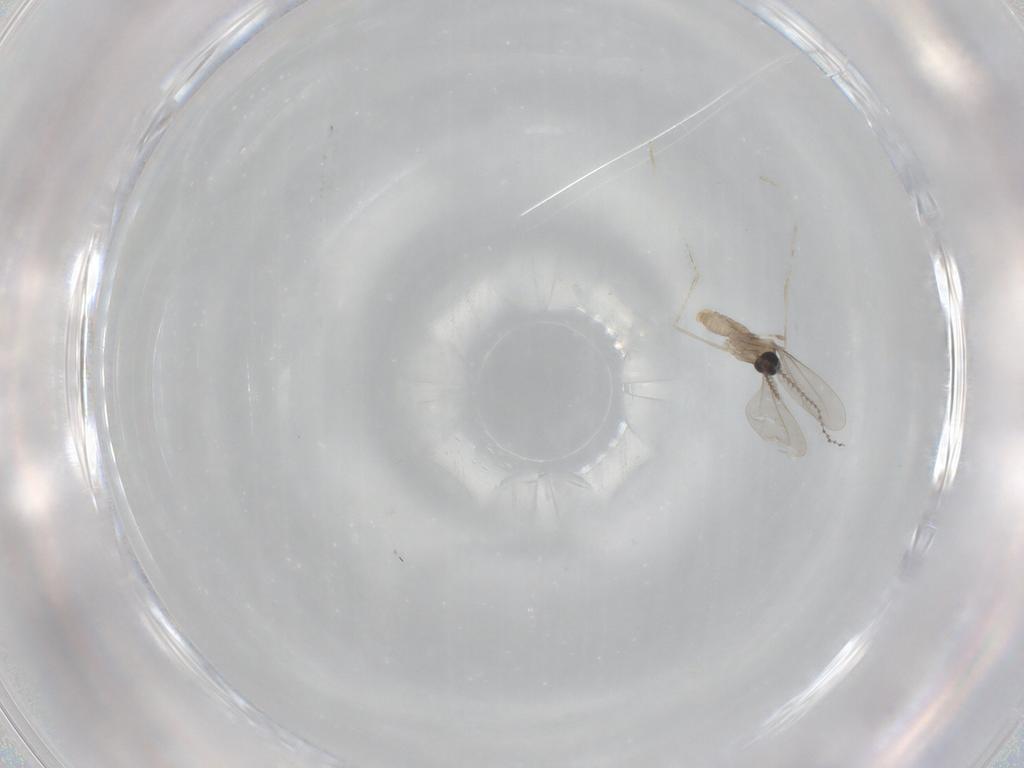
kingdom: Animalia
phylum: Arthropoda
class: Insecta
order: Diptera
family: Cecidomyiidae
